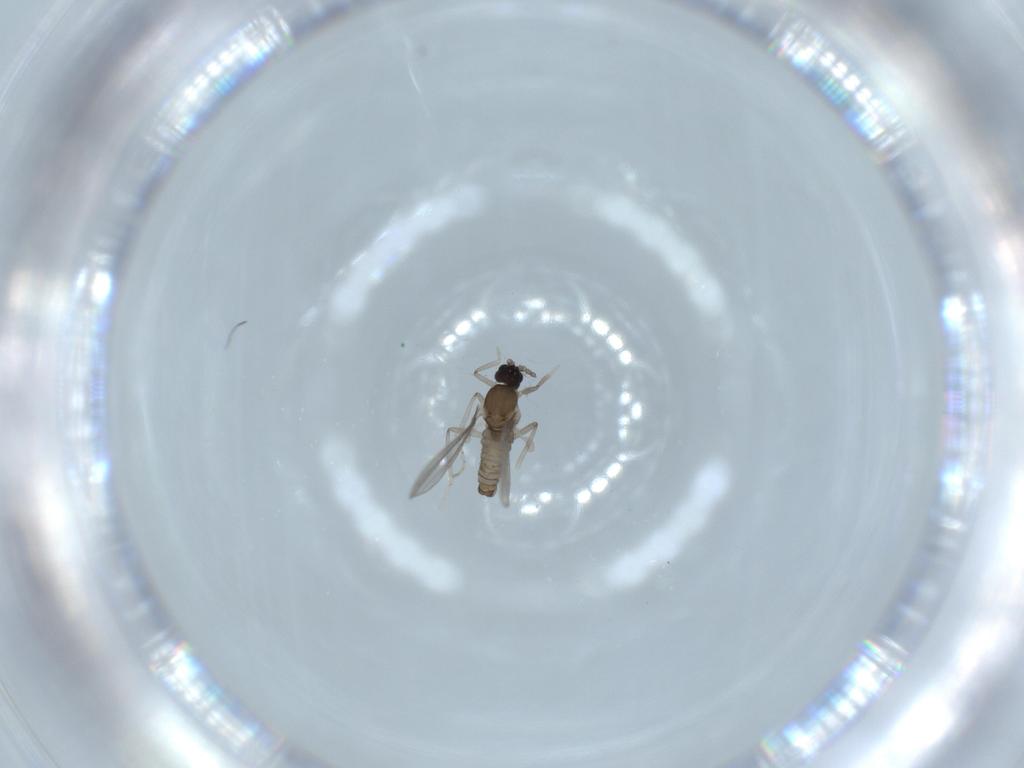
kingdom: Animalia
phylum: Arthropoda
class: Insecta
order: Diptera
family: Cecidomyiidae
